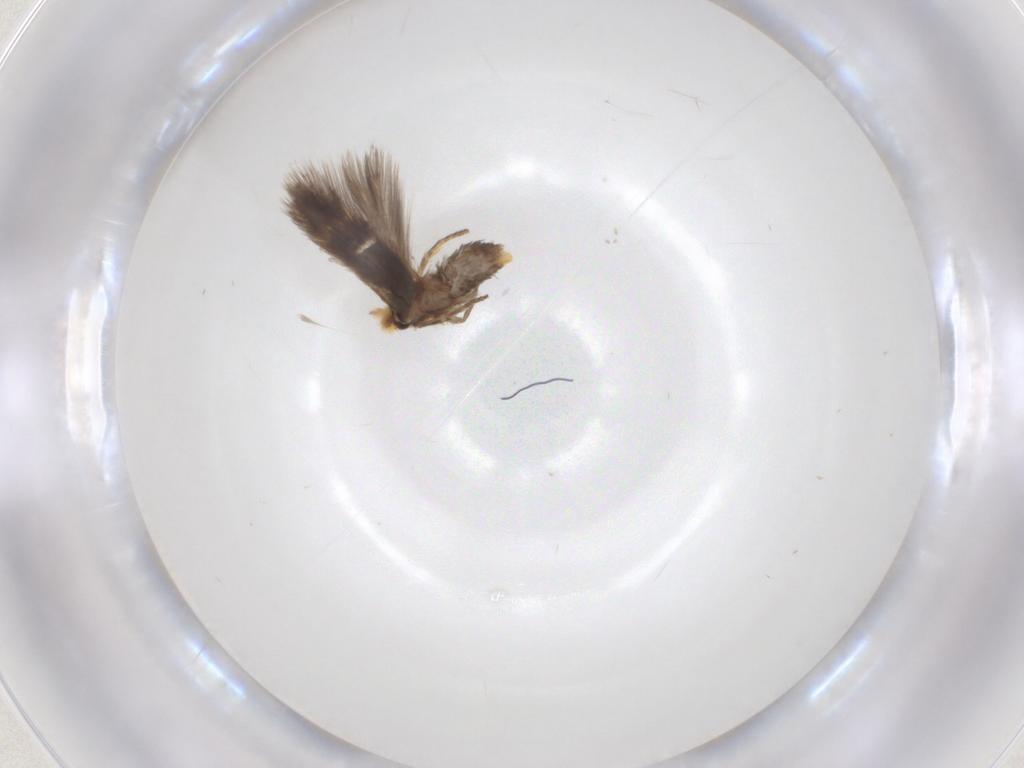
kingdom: Animalia
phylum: Arthropoda
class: Insecta
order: Lepidoptera
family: Nepticulidae
